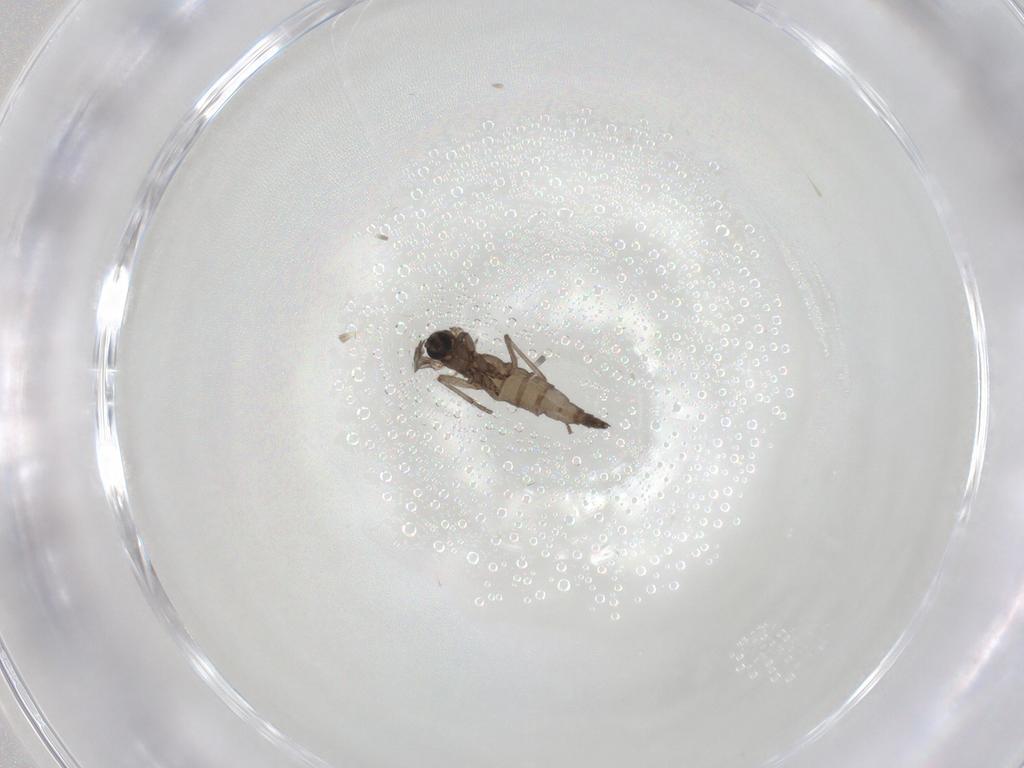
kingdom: Animalia
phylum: Arthropoda
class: Insecta
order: Diptera
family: Sciaridae
